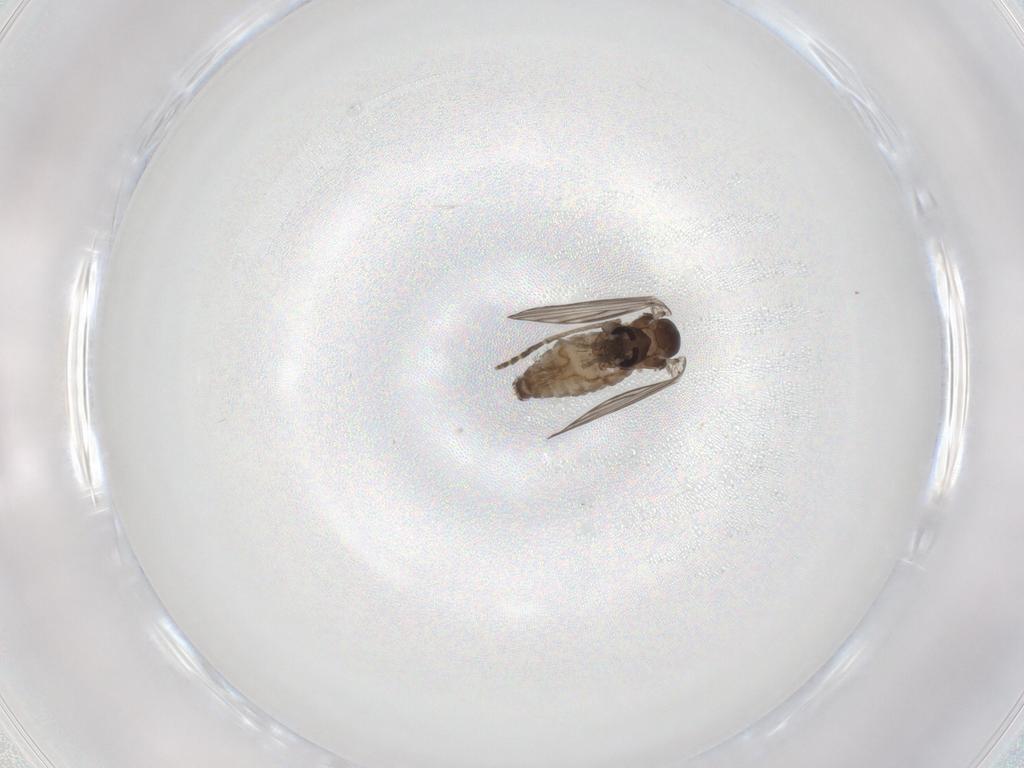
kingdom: Animalia
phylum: Arthropoda
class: Insecta
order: Diptera
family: Psychodidae
